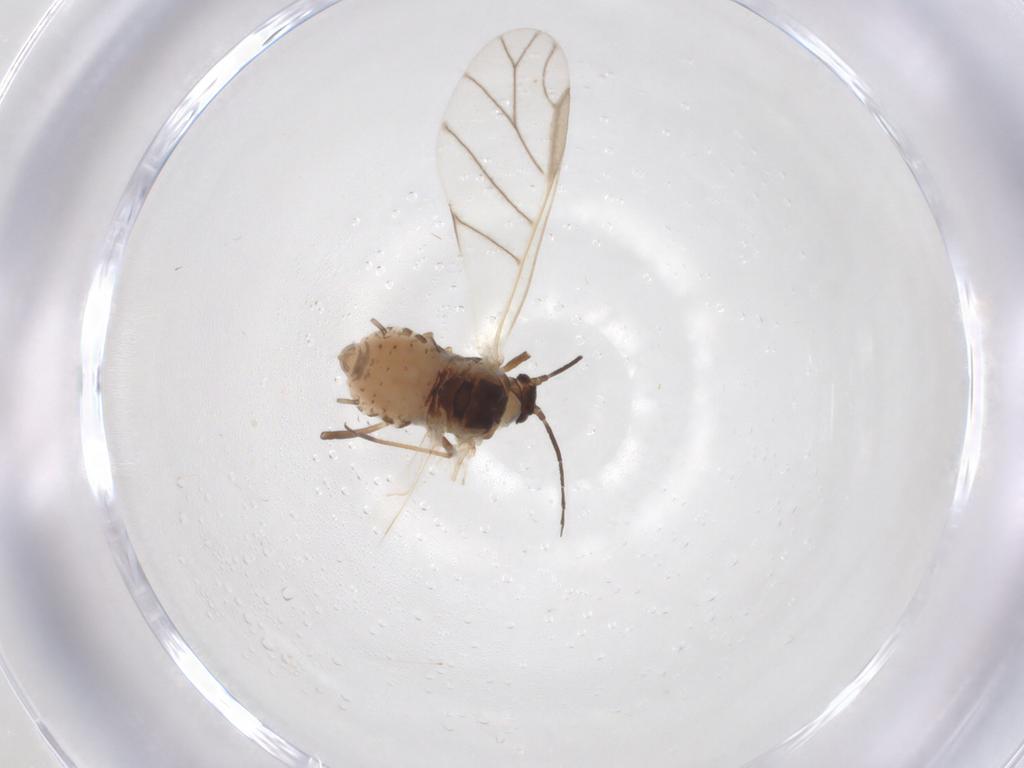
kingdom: Animalia
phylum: Arthropoda
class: Insecta
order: Hemiptera
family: Aphididae
